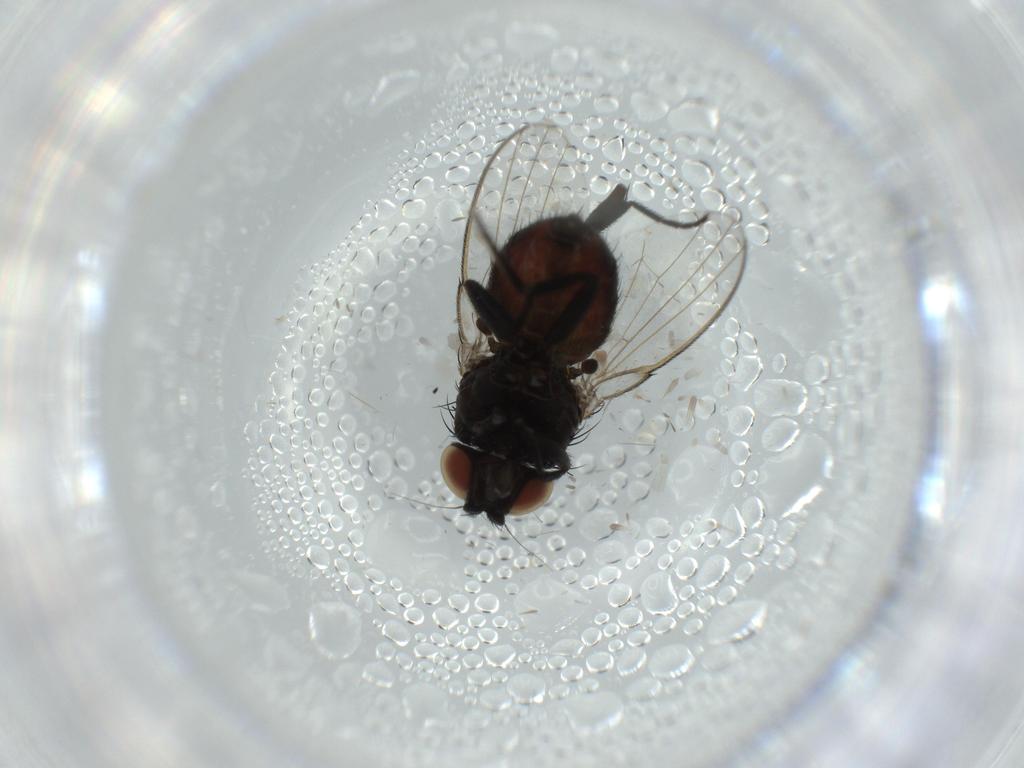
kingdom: Animalia
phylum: Arthropoda
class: Insecta
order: Diptera
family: Milichiidae
